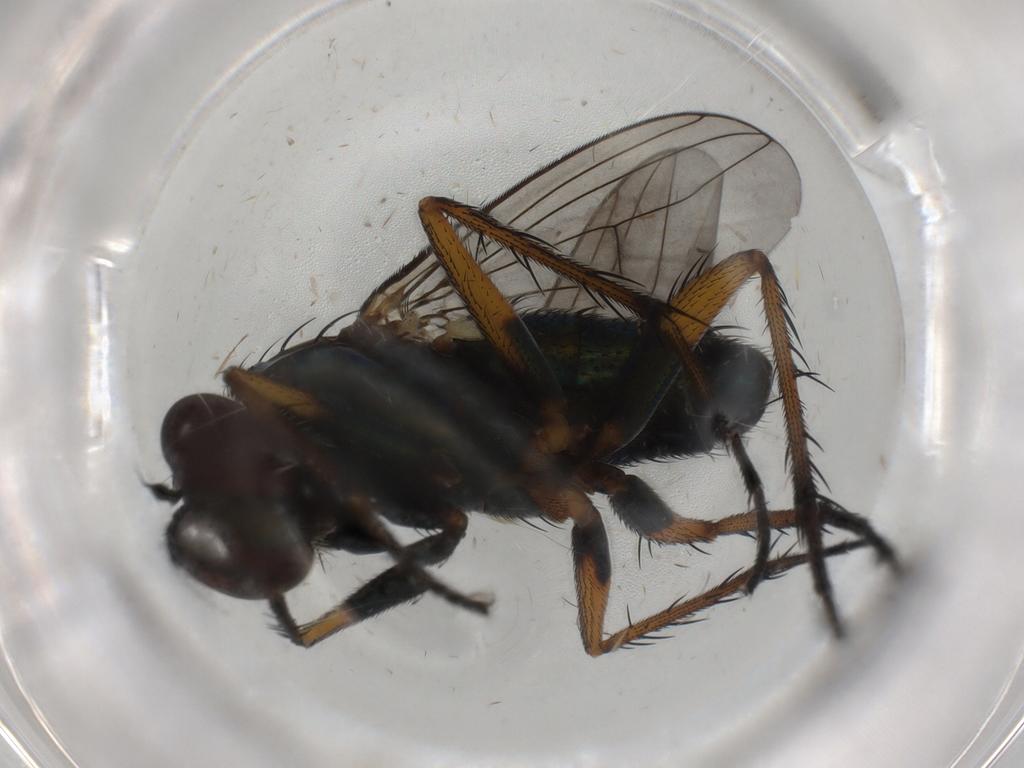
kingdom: Animalia
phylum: Arthropoda
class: Insecta
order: Diptera
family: Dolichopodidae
